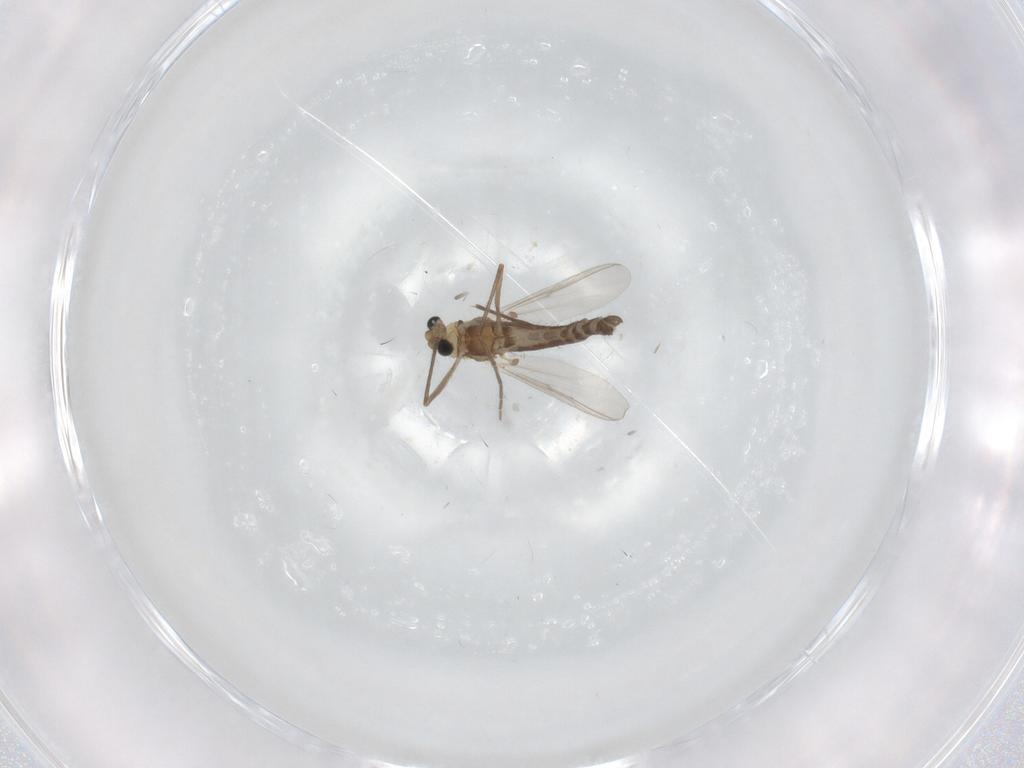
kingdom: Animalia
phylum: Arthropoda
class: Insecta
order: Diptera
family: Chironomidae
